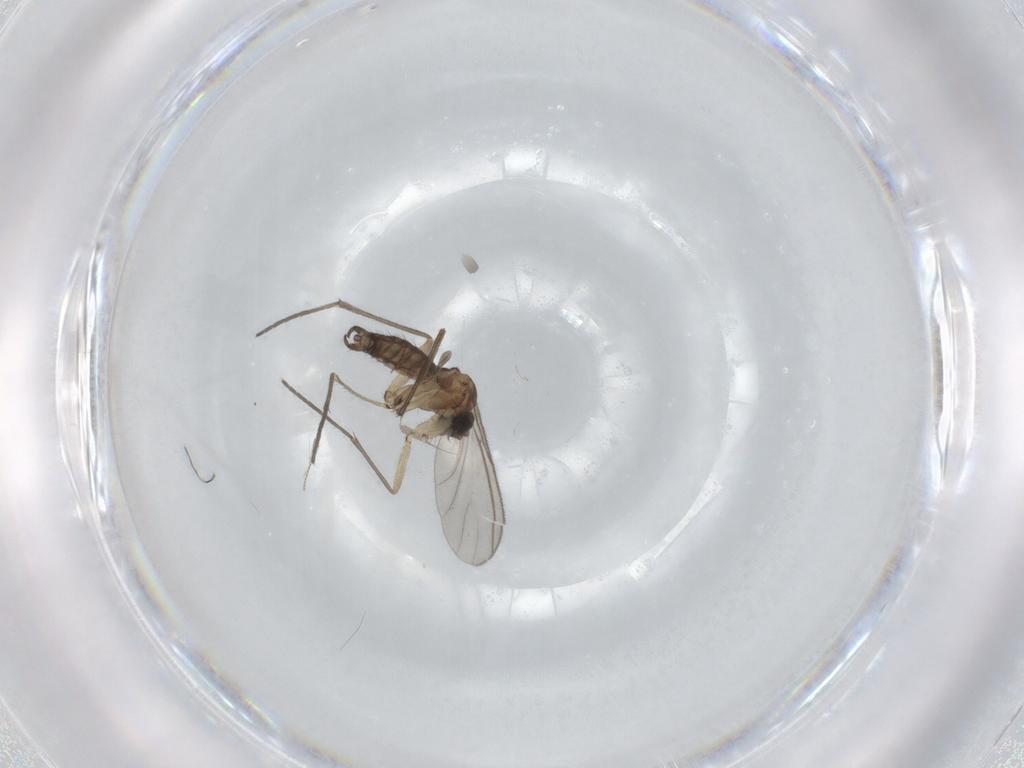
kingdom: Animalia
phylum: Arthropoda
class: Insecta
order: Diptera
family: Sciaridae
